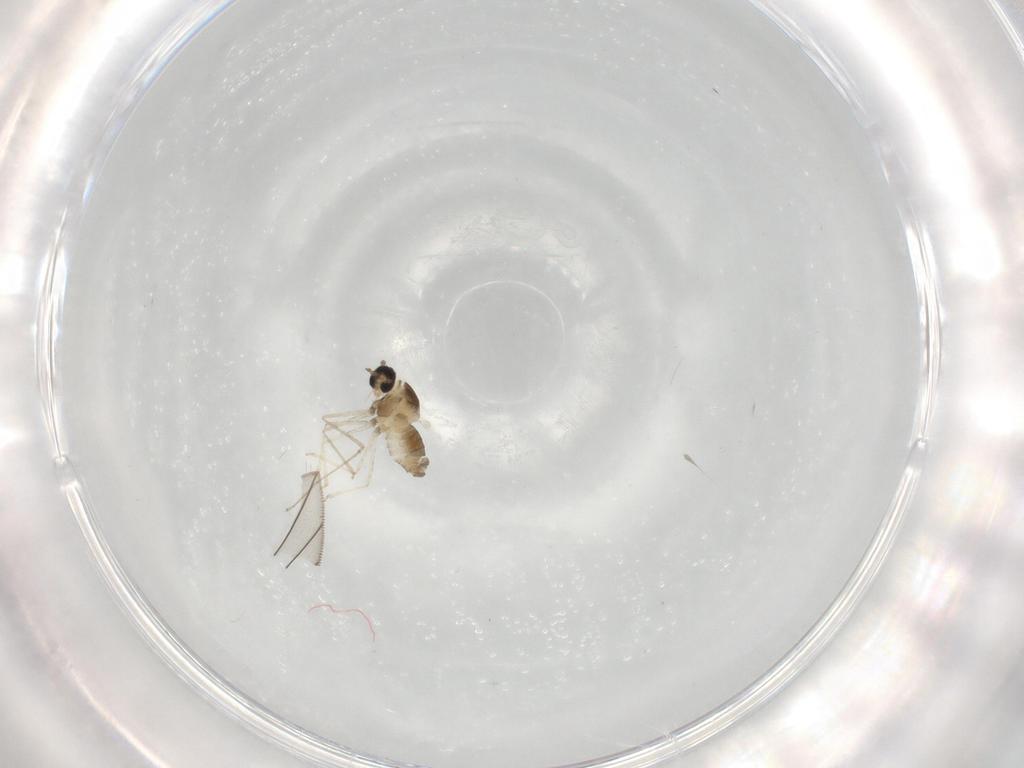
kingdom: Animalia
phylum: Arthropoda
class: Insecta
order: Diptera
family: Cecidomyiidae
